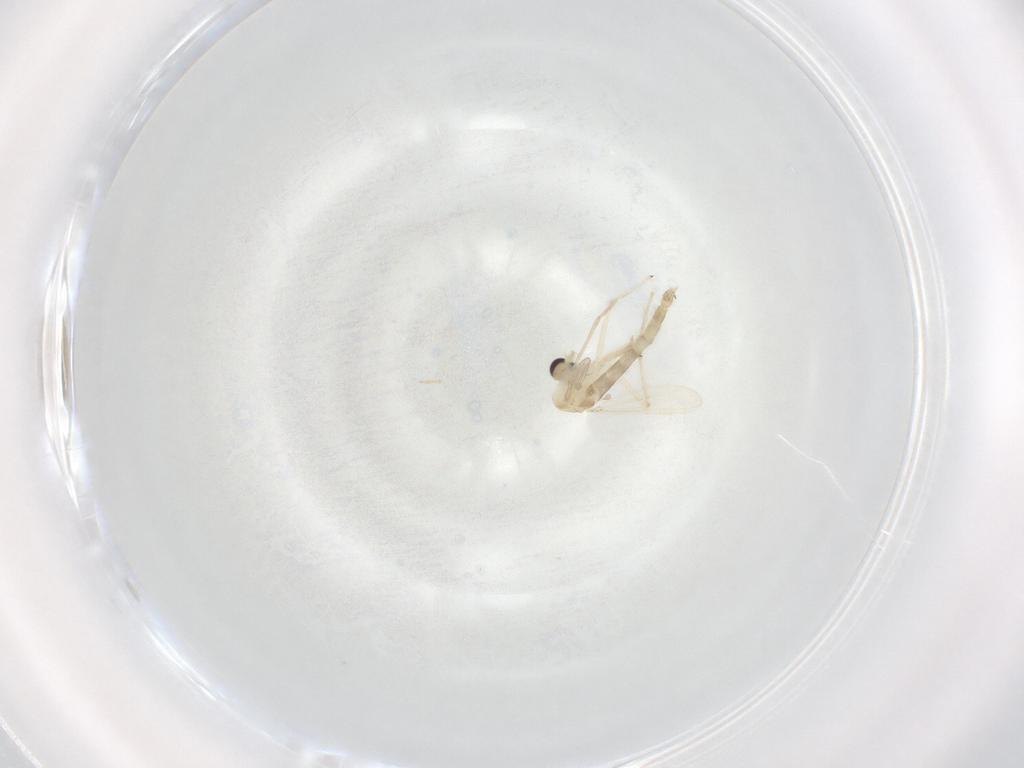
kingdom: Animalia
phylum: Arthropoda
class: Insecta
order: Diptera
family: Chironomidae
